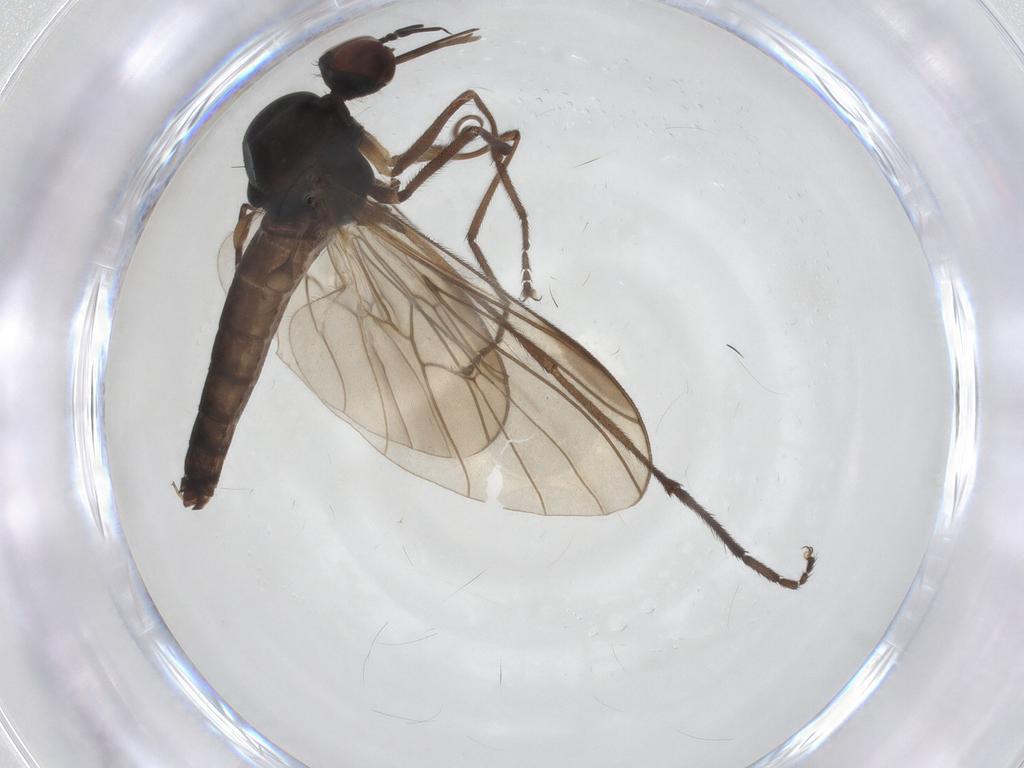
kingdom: Animalia
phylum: Arthropoda
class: Insecta
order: Diptera
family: Empididae
